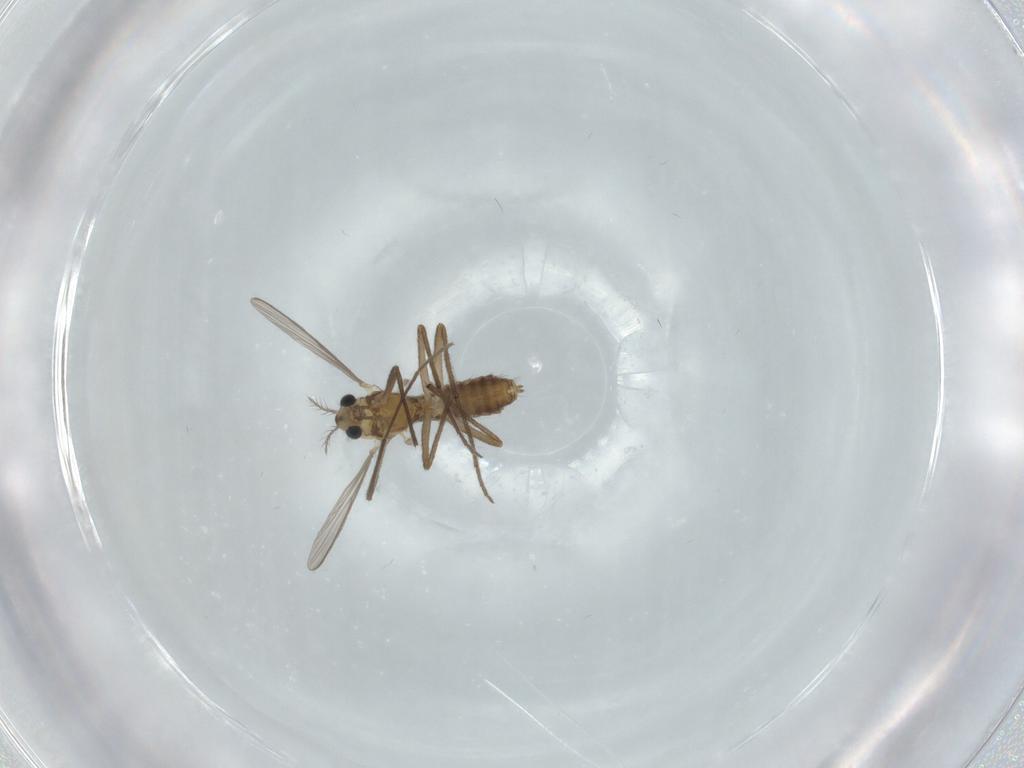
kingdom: Animalia
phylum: Arthropoda
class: Insecta
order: Diptera
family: Chironomidae
